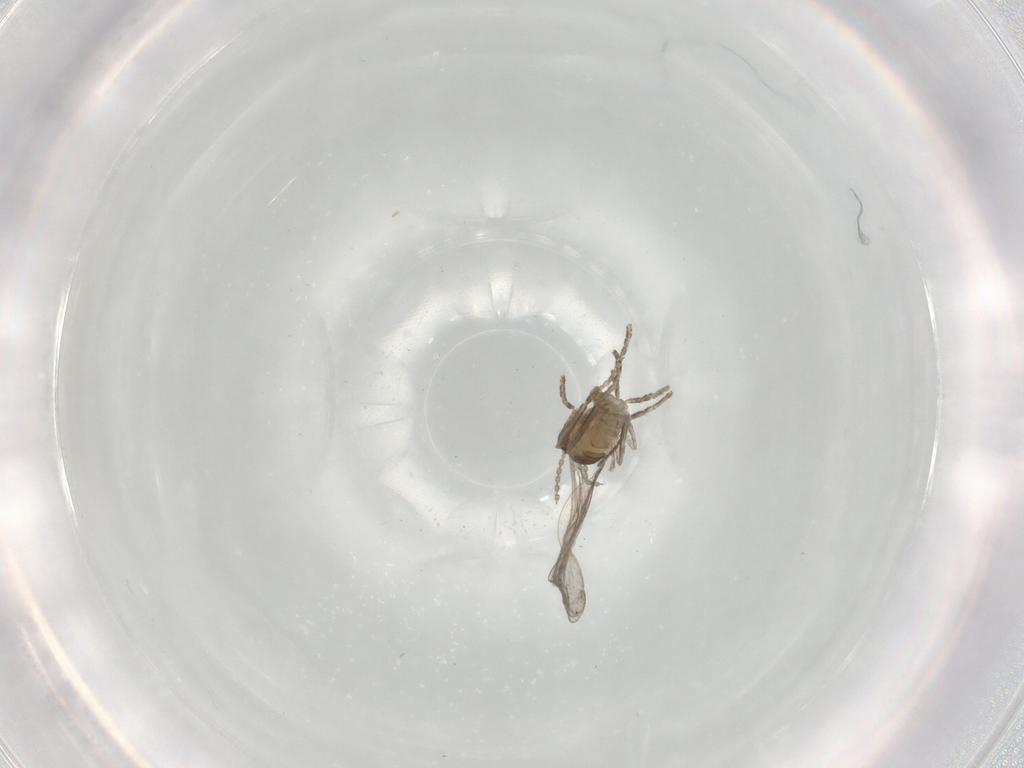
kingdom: Animalia
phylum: Arthropoda
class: Insecta
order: Diptera
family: Cecidomyiidae
